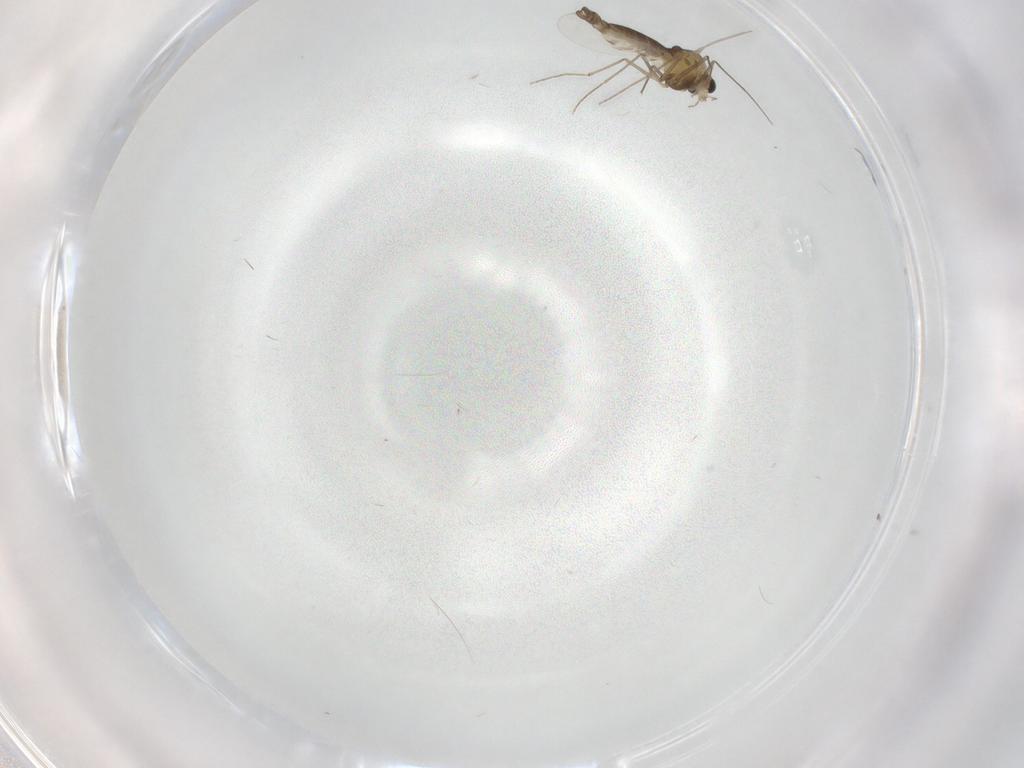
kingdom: Animalia
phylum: Arthropoda
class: Insecta
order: Diptera
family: Chironomidae
